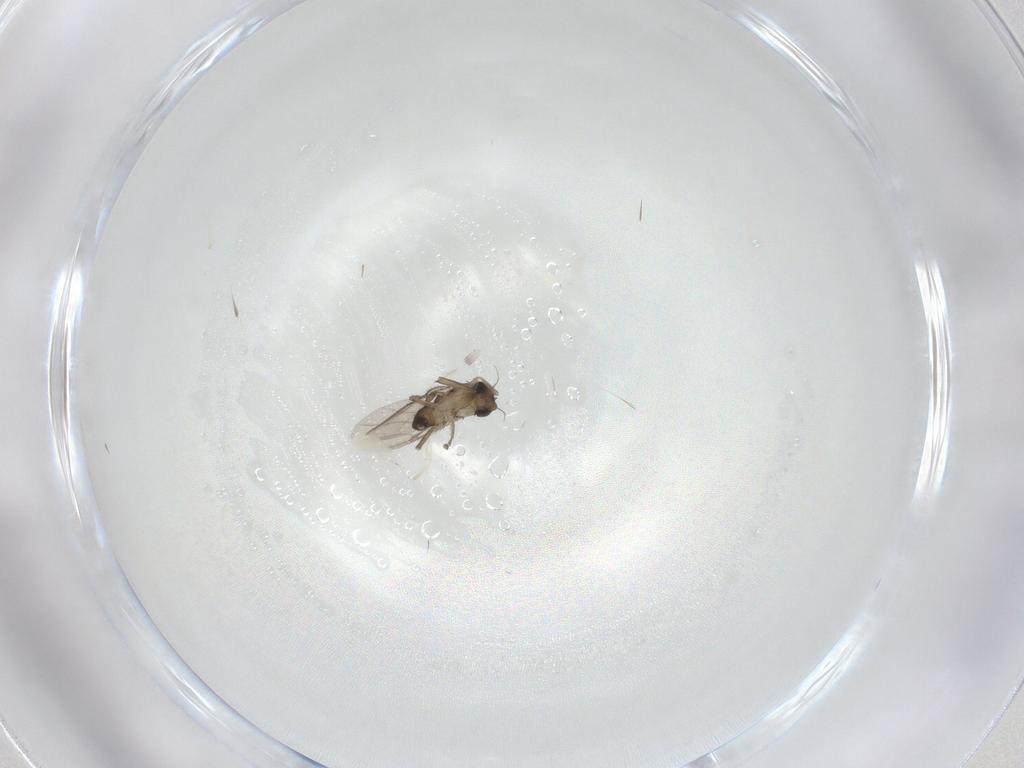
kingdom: Animalia
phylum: Arthropoda
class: Insecta
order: Diptera
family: Phoridae
